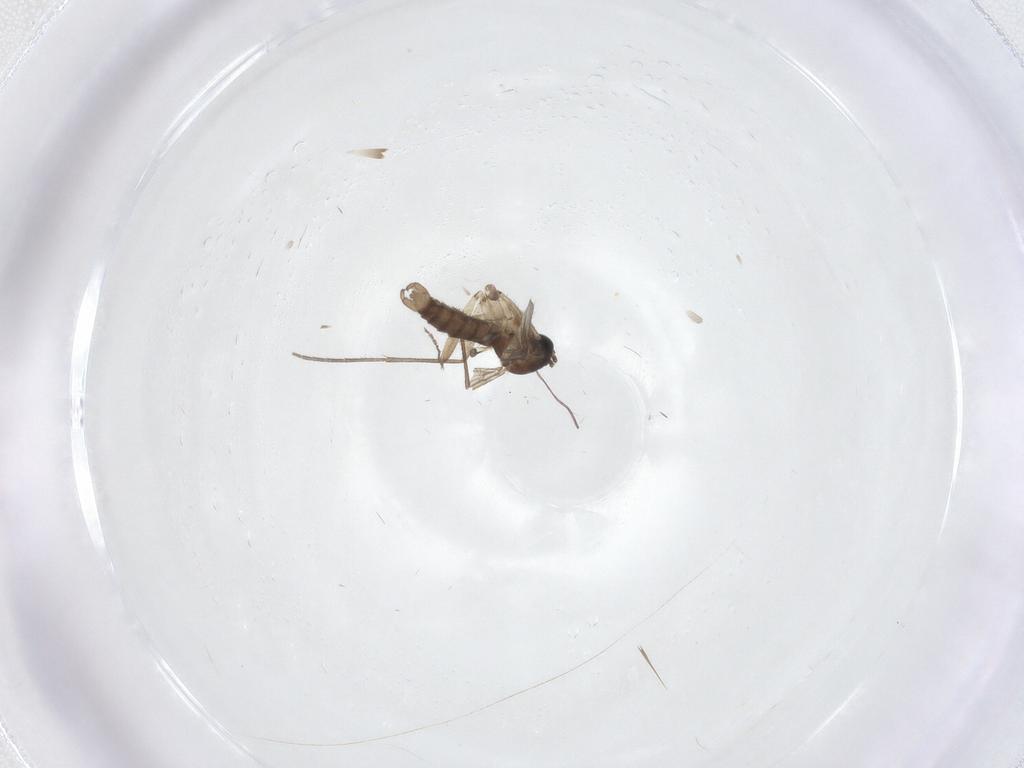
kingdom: Animalia
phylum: Arthropoda
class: Insecta
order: Diptera
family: Sciaridae
